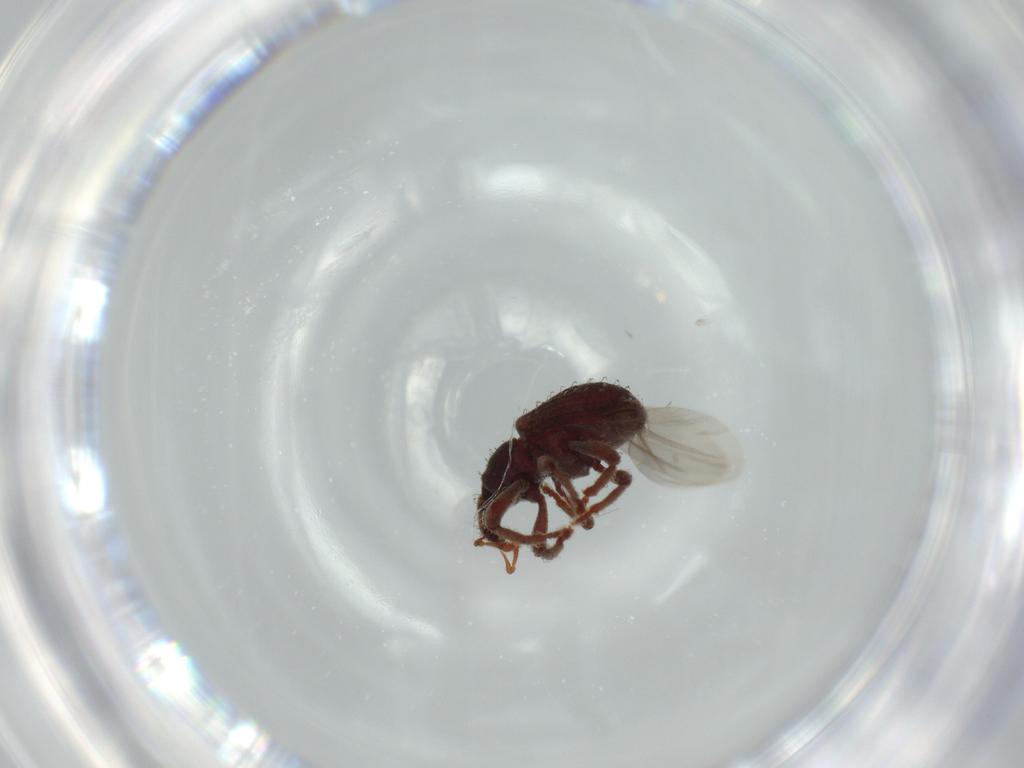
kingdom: Animalia
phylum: Arthropoda
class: Insecta
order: Coleoptera
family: Curculionidae
